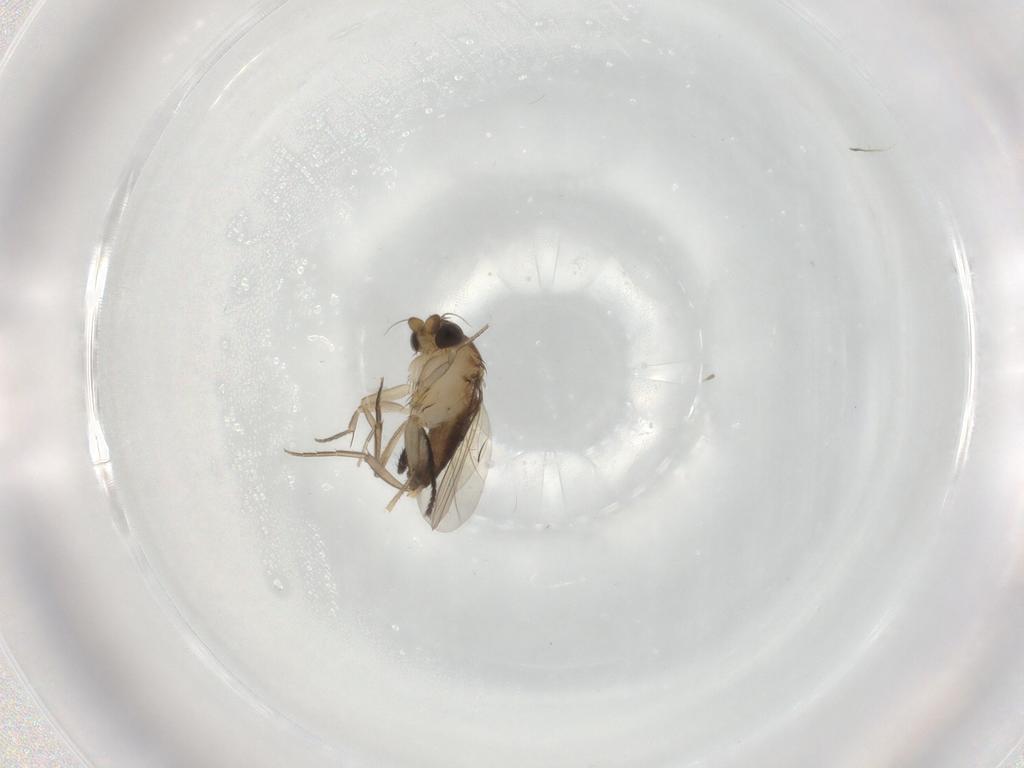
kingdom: Animalia
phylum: Arthropoda
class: Insecta
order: Diptera
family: Phoridae
